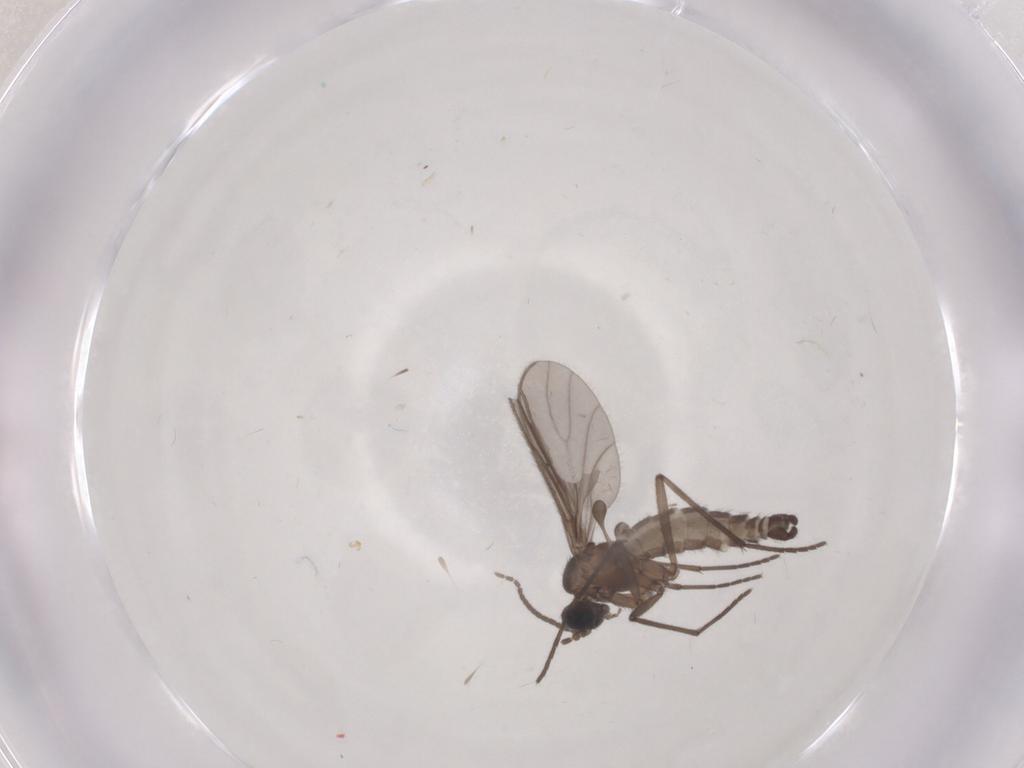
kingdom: Animalia
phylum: Arthropoda
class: Insecta
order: Diptera
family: Sciaridae
